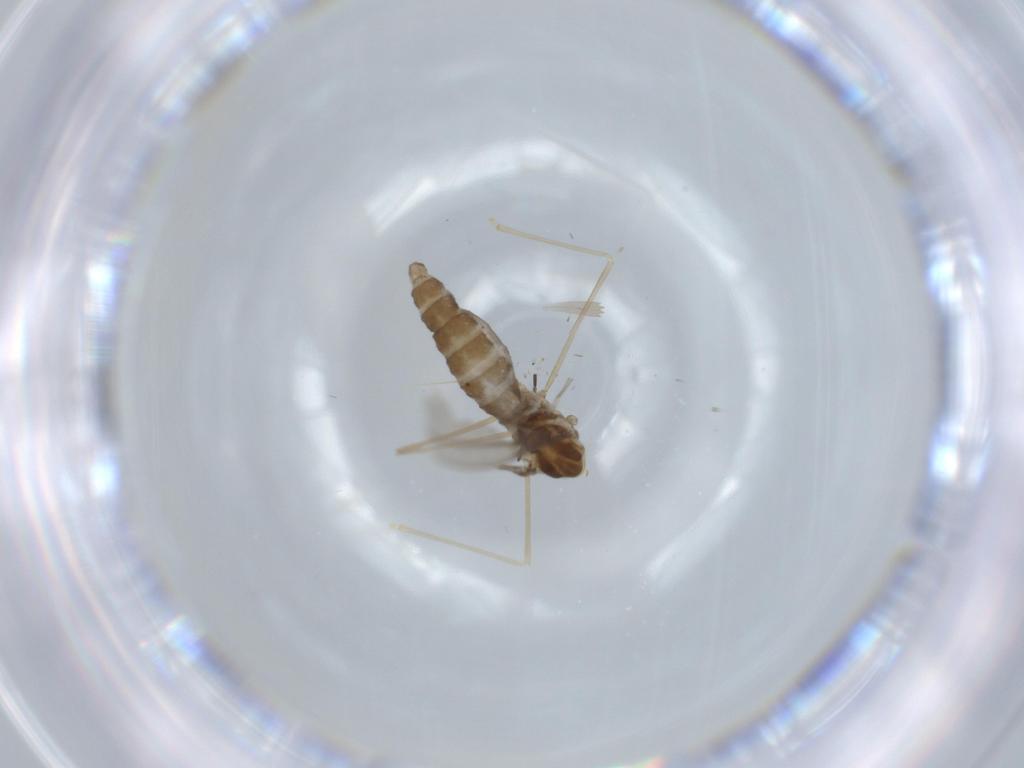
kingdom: Animalia
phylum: Arthropoda
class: Insecta
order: Diptera
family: Cecidomyiidae
